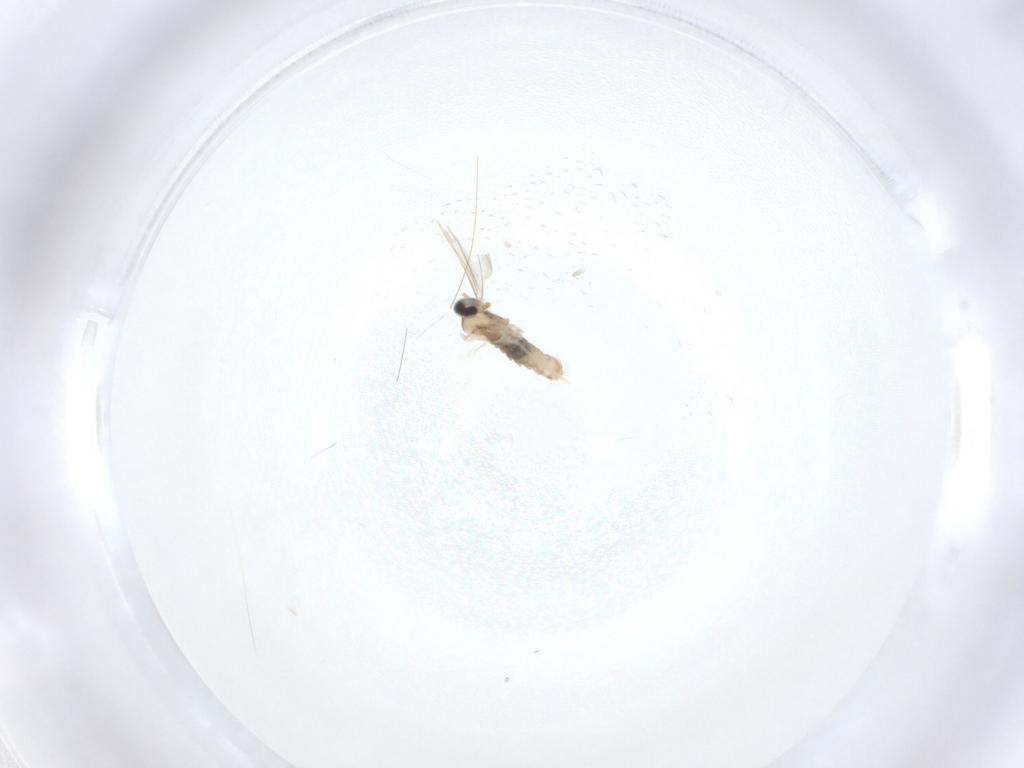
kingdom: Animalia
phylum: Arthropoda
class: Insecta
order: Diptera
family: Cecidomyiidae
